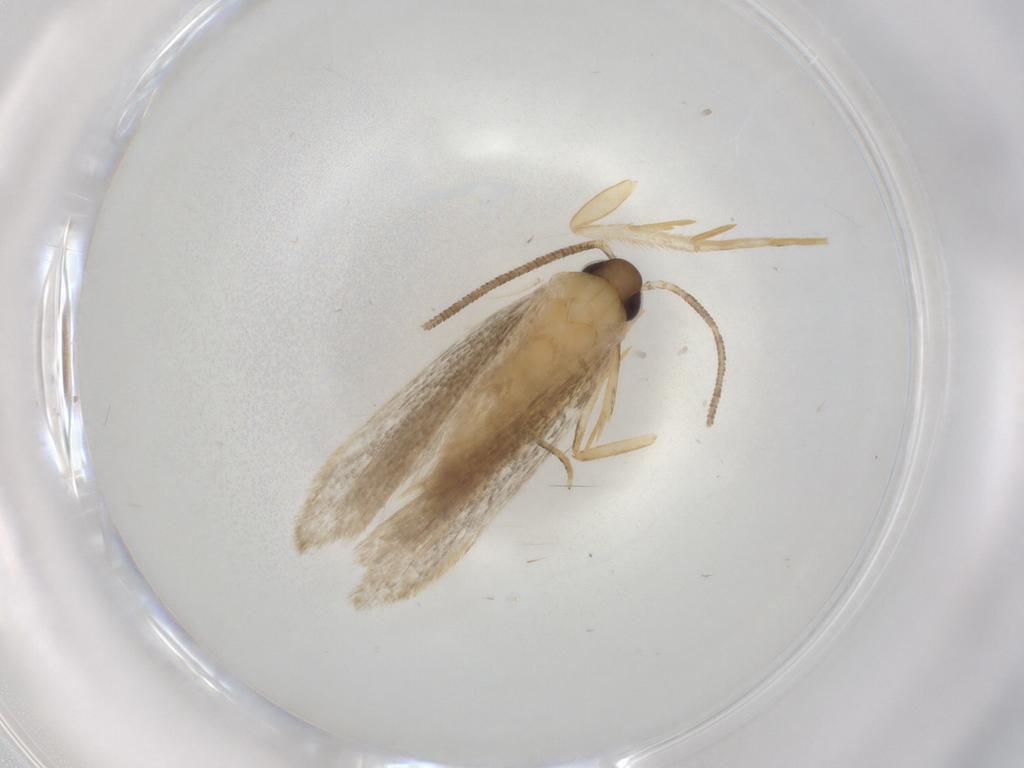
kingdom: Animalia
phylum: Arthropoda
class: Insecta
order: Lepidoptera
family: Autostichidae
